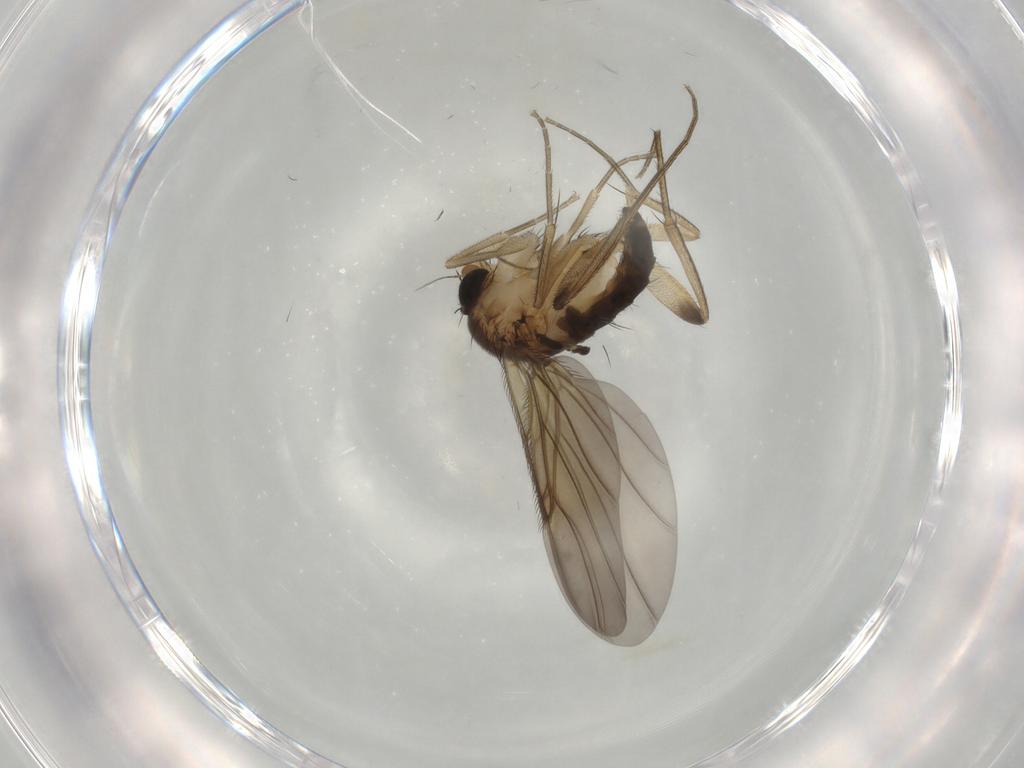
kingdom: Animalia
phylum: Arthropoda
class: Insecta
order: Diptera
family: Phoridae
